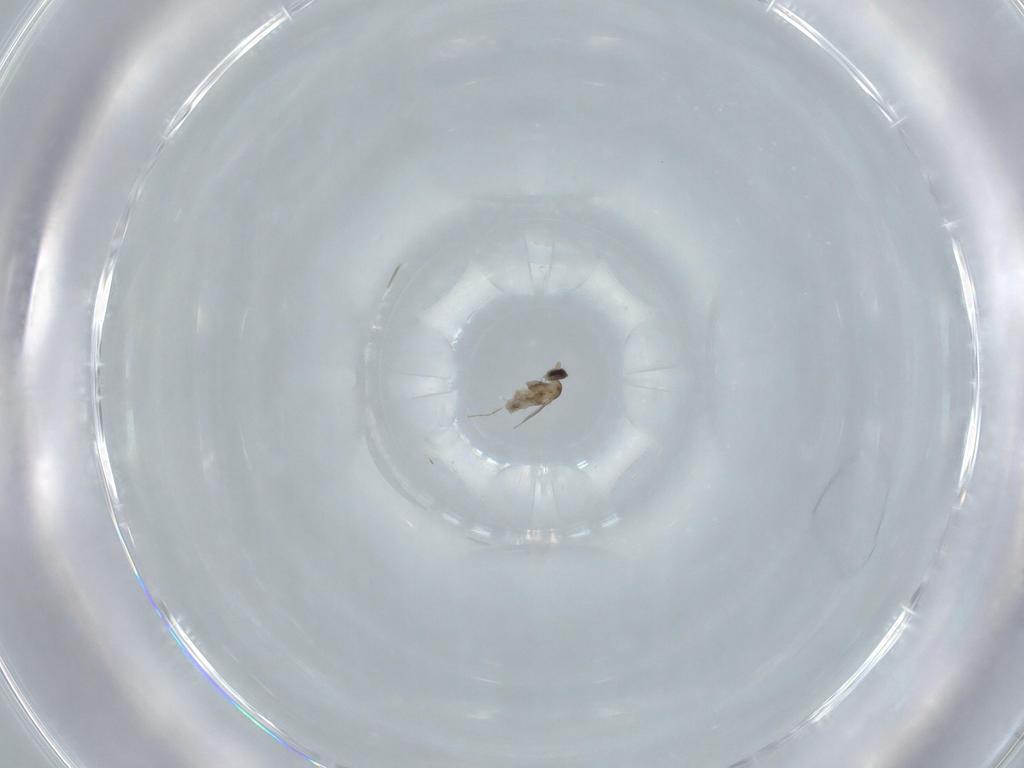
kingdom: Animalia
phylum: Arthropoda
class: Insecta
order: Diptera
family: Cecidomyiidae
